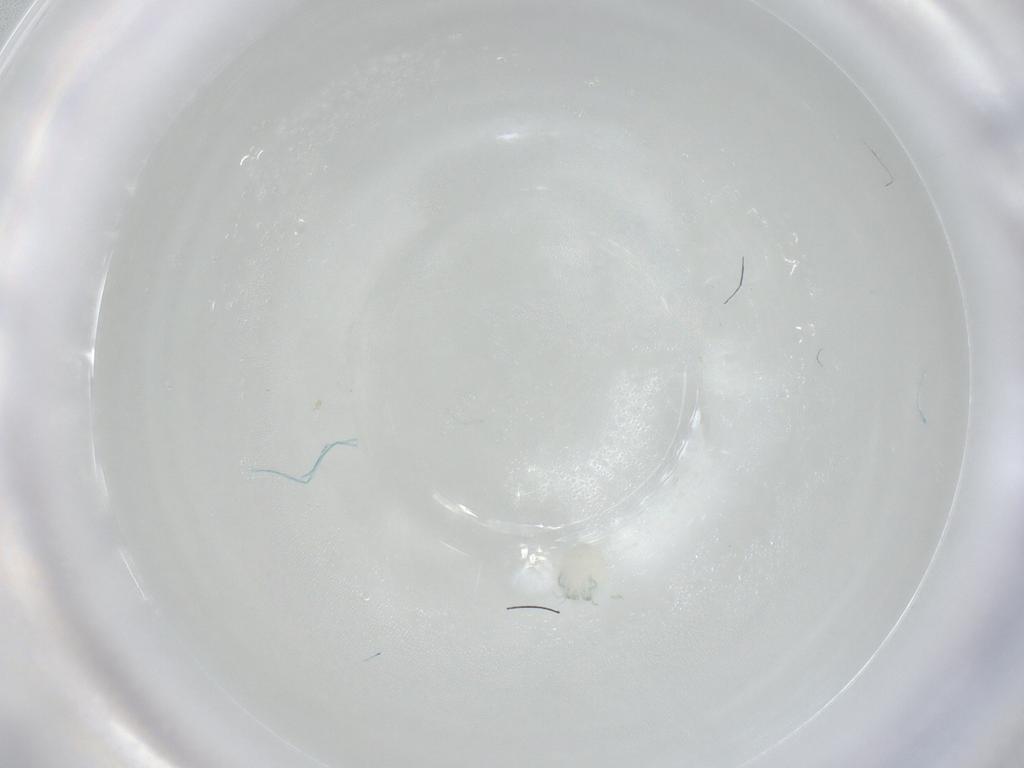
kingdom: Animalia
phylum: Arthropoda
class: Arachnida
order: Trombidiformes
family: Arrenuridae
